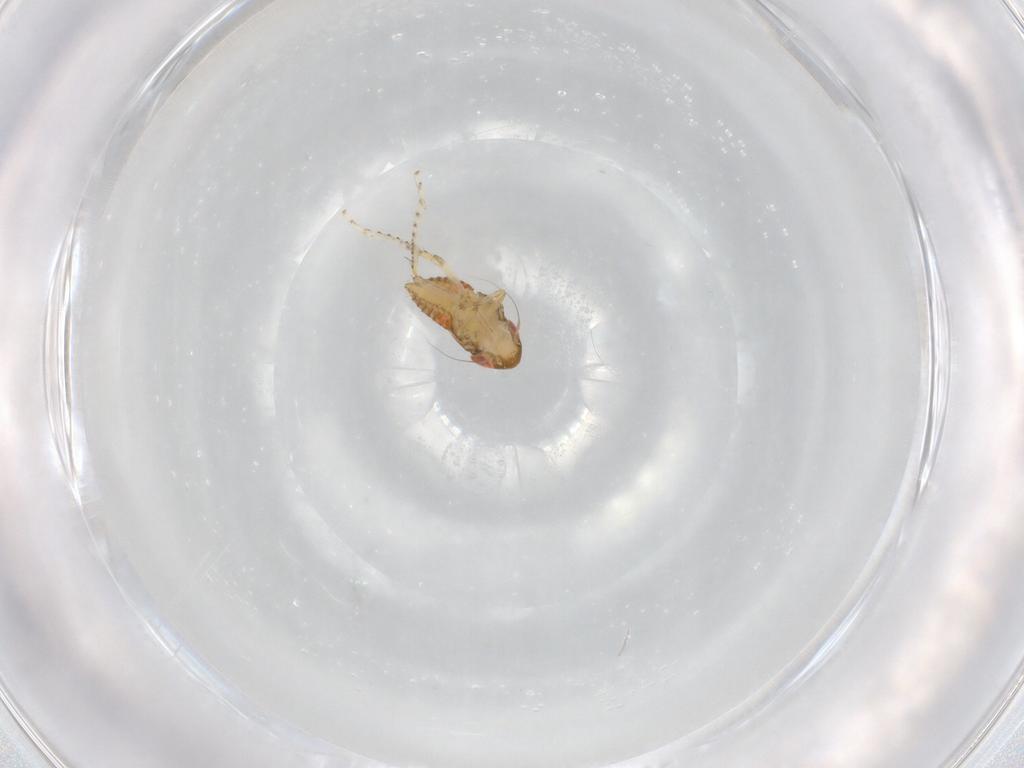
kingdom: Animalia
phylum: Arthropoda
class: Insecta
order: Hemiptera
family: Cicadellidae
